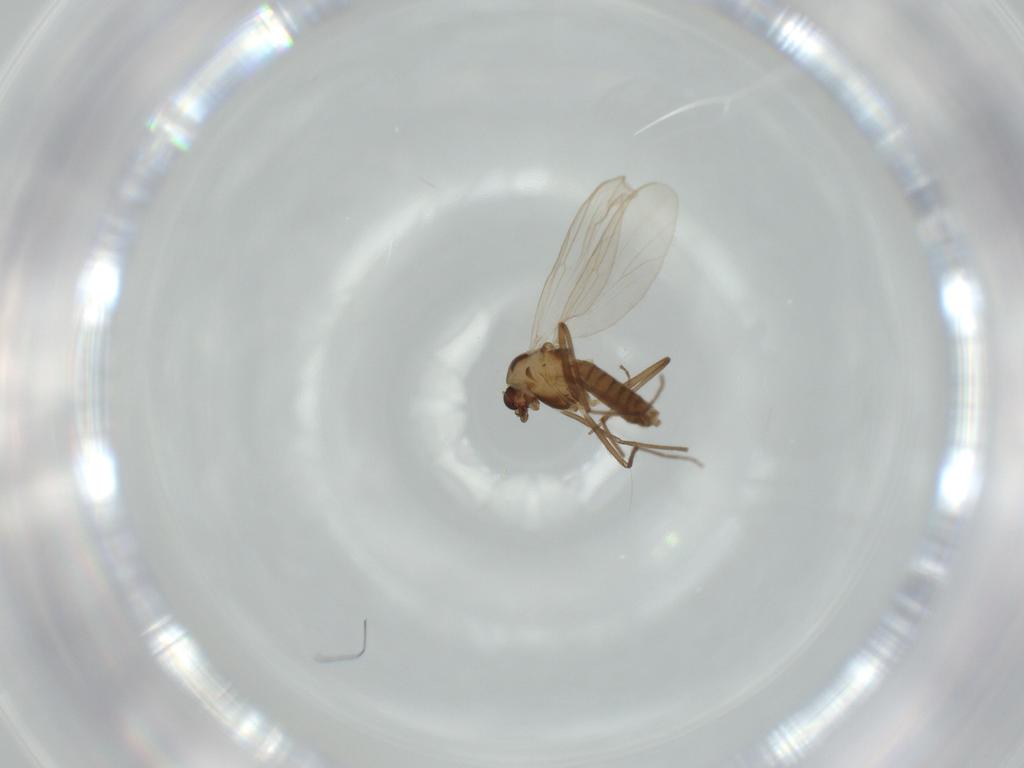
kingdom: Animalia
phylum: Arthropoda
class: Insecta
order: Diptera
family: Chironomidae
